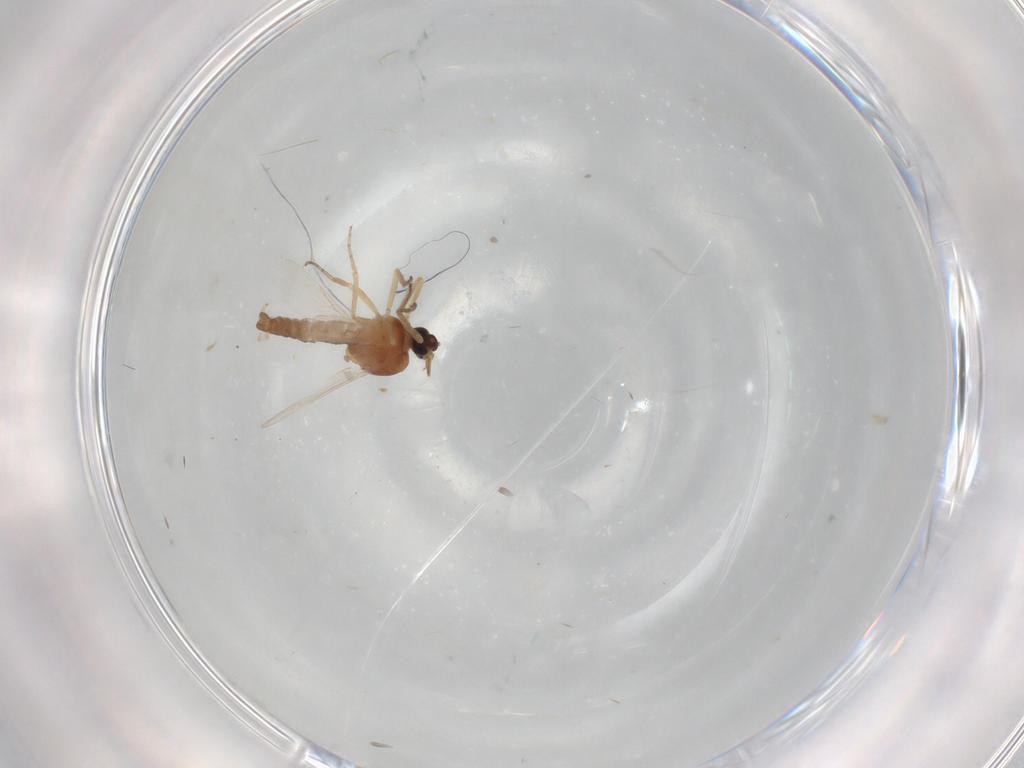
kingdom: Animalia
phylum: Arthropoda
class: Insecta
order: Diptera
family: Ceratopogonidae
